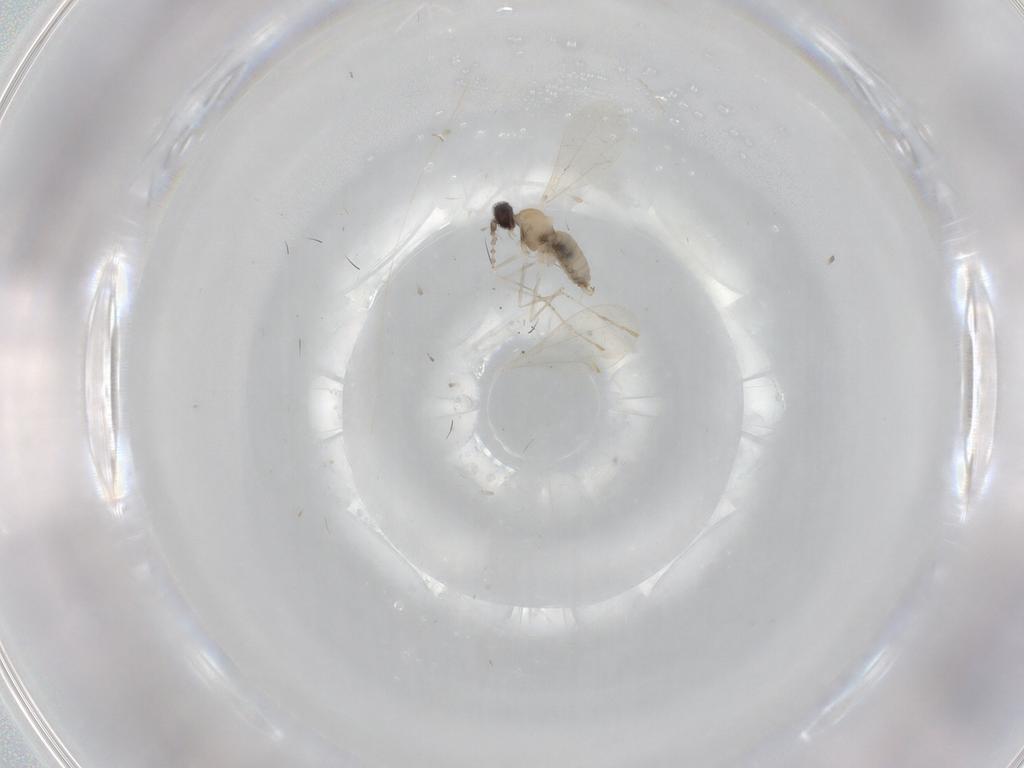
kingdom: Animalia
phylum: Arthropoda
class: Insecta
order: Diptera
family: Cecidomyiidae
